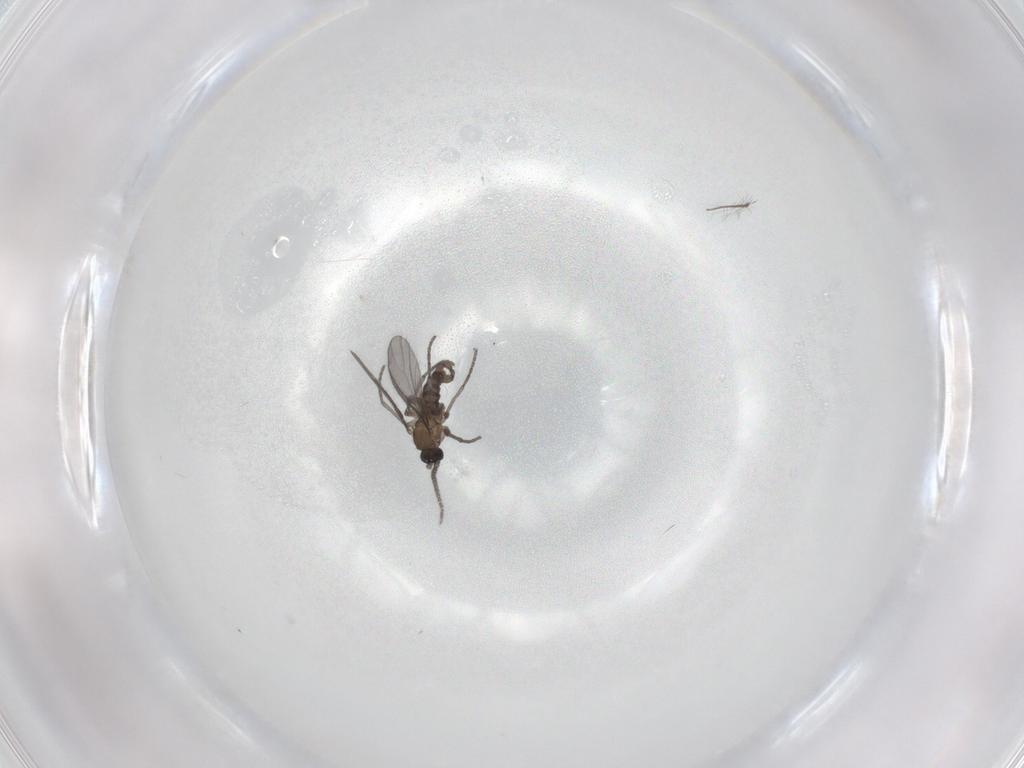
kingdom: Animalia
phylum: Arthropoda
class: Insecta
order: Diptera
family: Sciaridae
